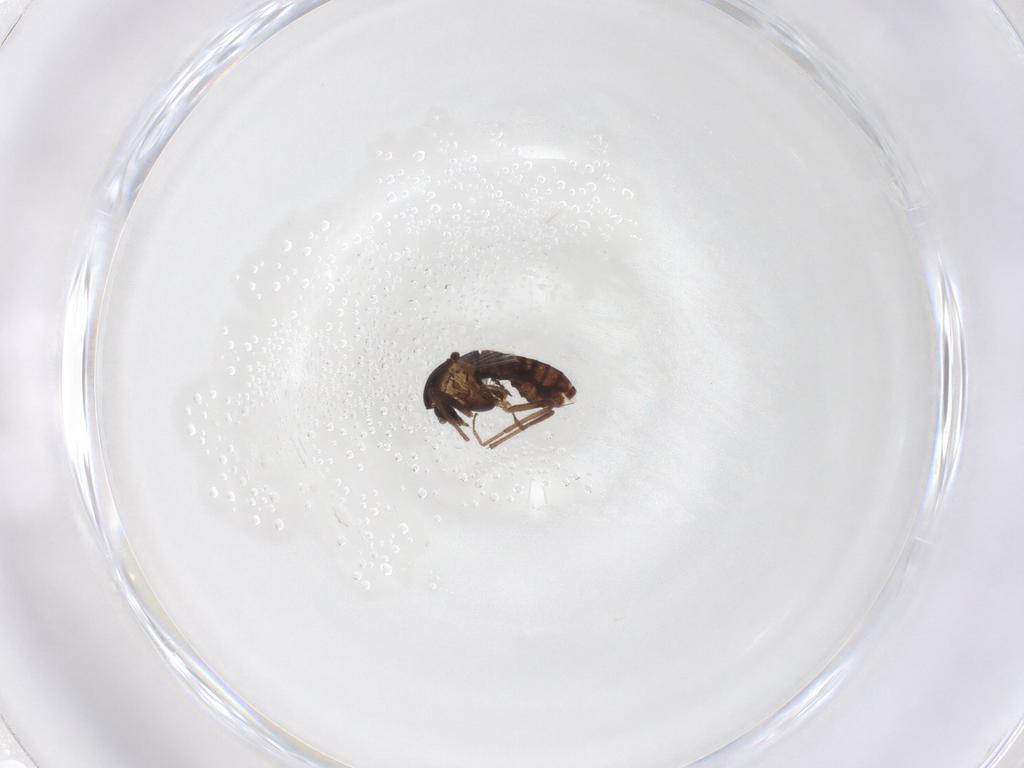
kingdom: Animalia
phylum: Arthropoda
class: Insecta
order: Diptera
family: Chironomidae
